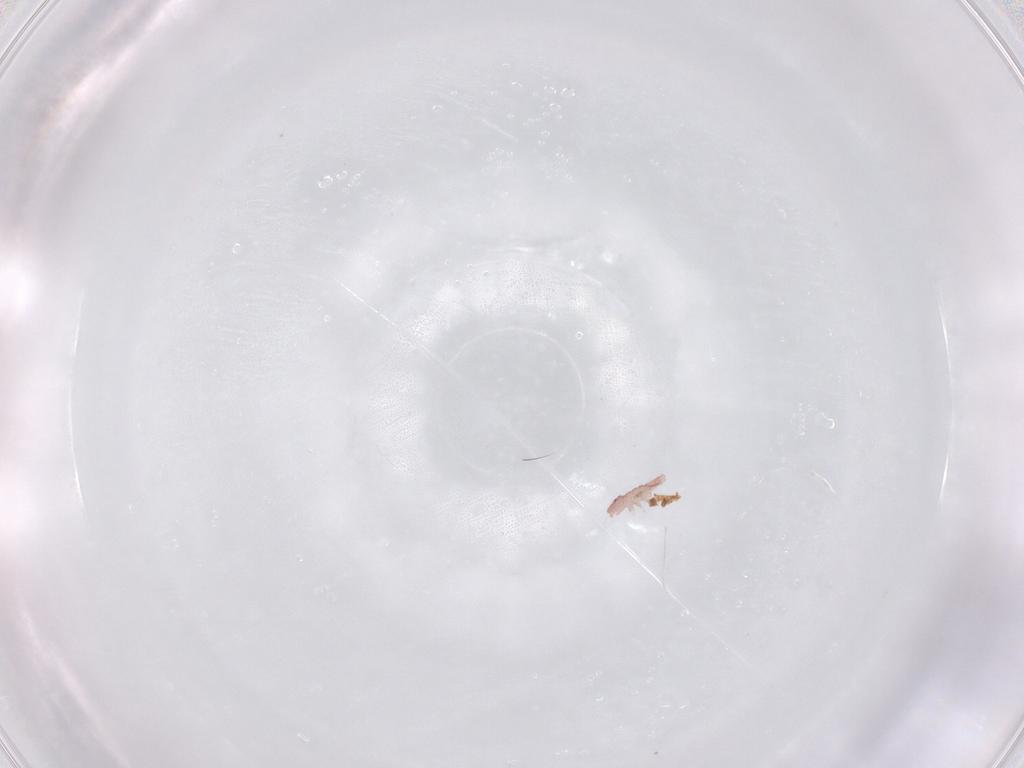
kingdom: Animalia
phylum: Arthropoda
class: Collembola
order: Poduromorpha
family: Hypogastruridae
